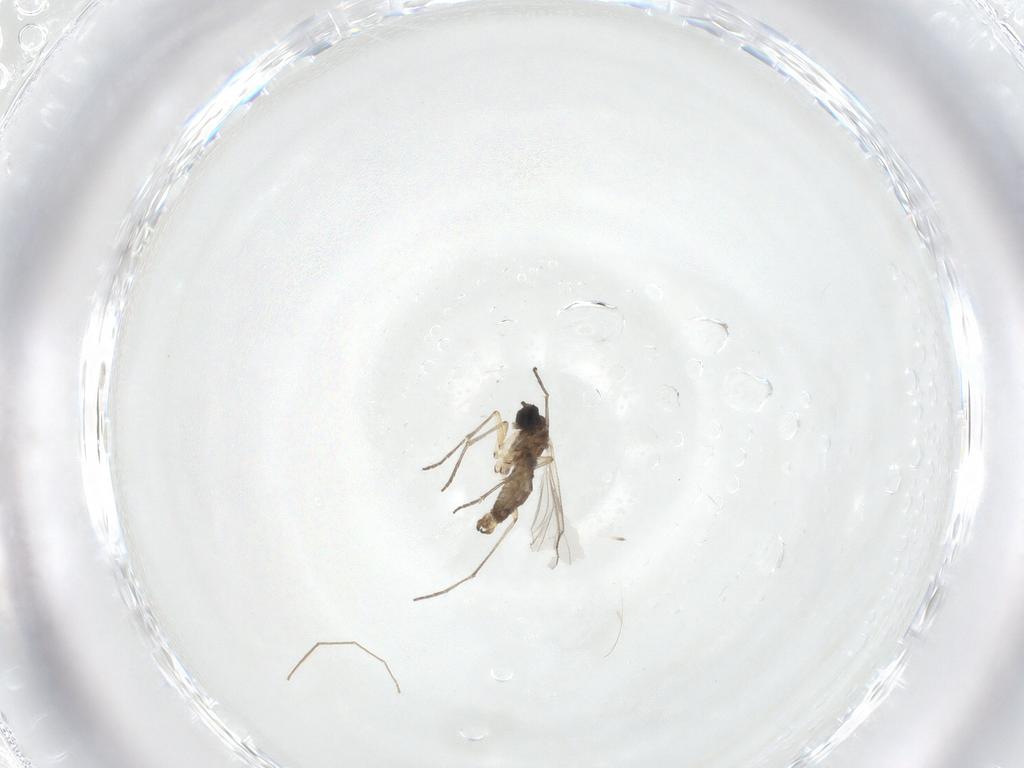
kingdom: Animalia
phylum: Arthropoda
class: Insecta
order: Diptera
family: Sciaridae
